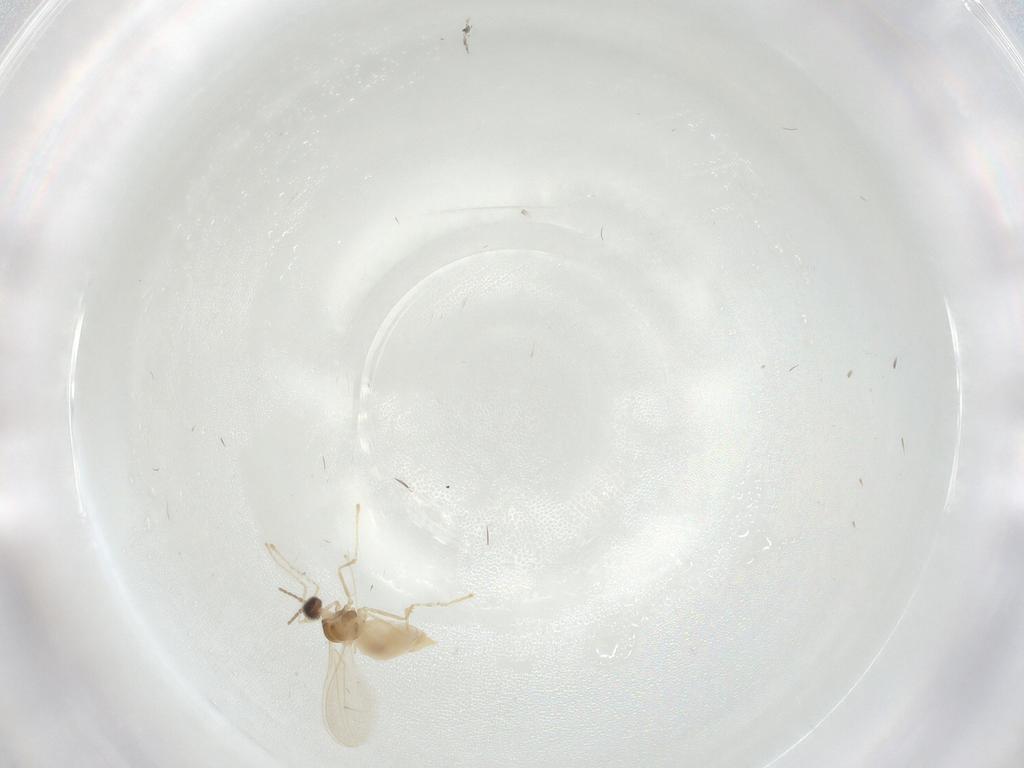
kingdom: Animalia
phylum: Arthropoda
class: Insecta
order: Diptera
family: Cecidomyiidae
